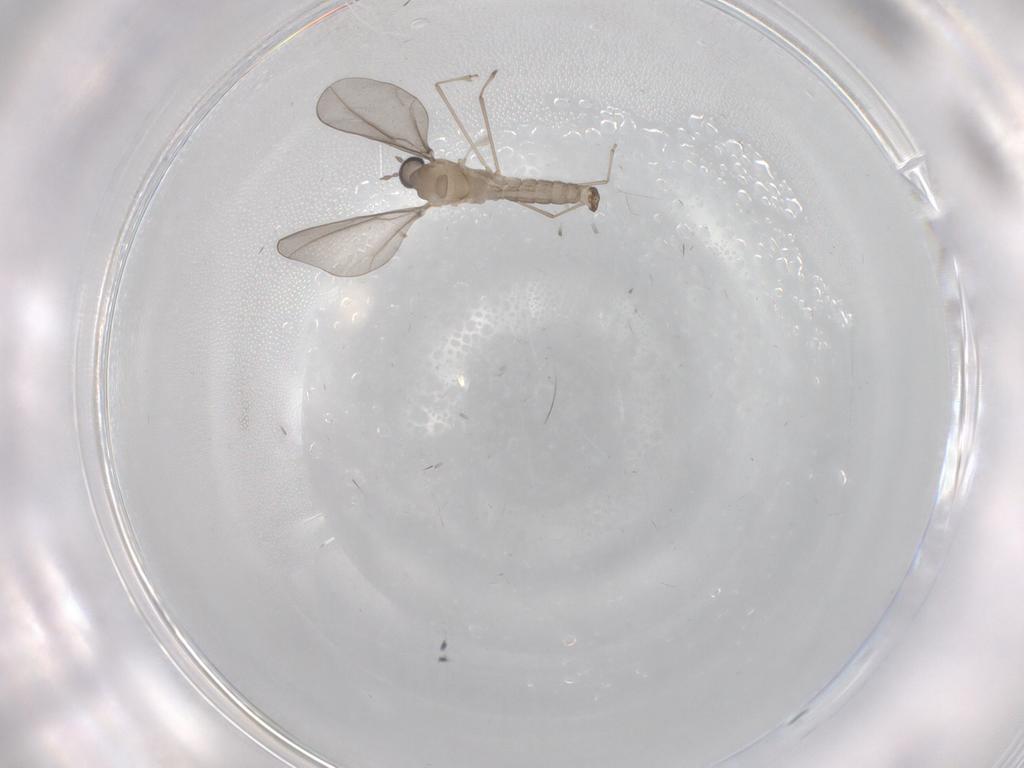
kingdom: Animalia
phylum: Arthropoda
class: Insecta
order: Diptera
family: Cecidomyiidae
